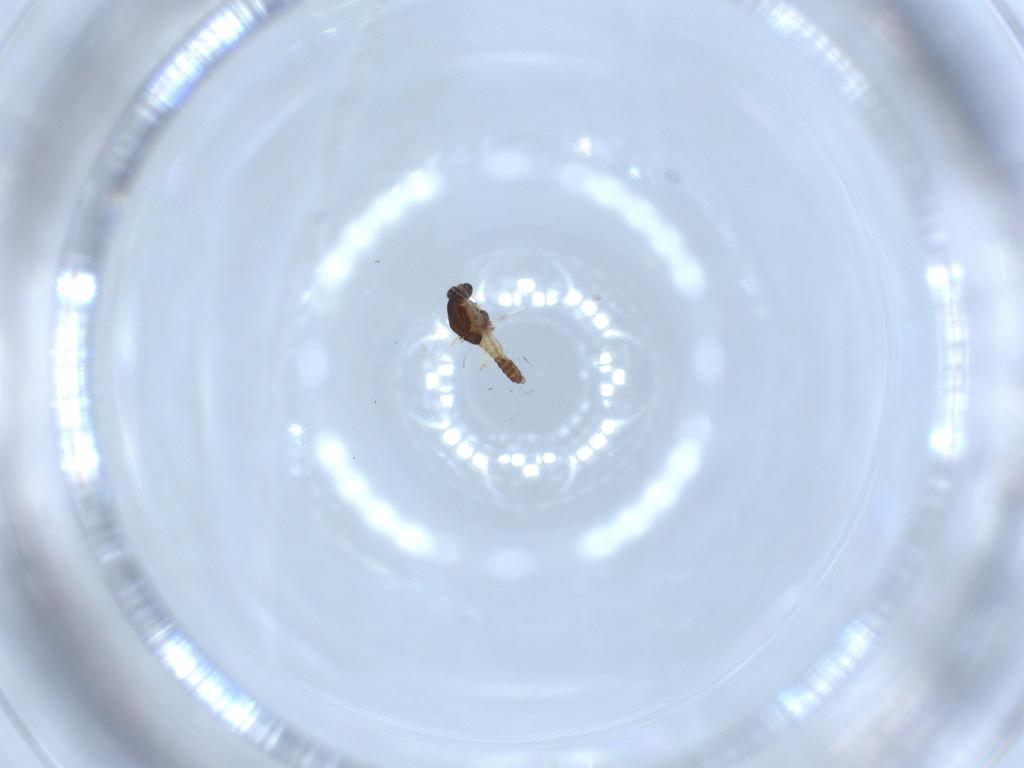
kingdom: Animalia
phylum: Arthropoda
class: Insecta
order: Diptera
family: Chironomidae
